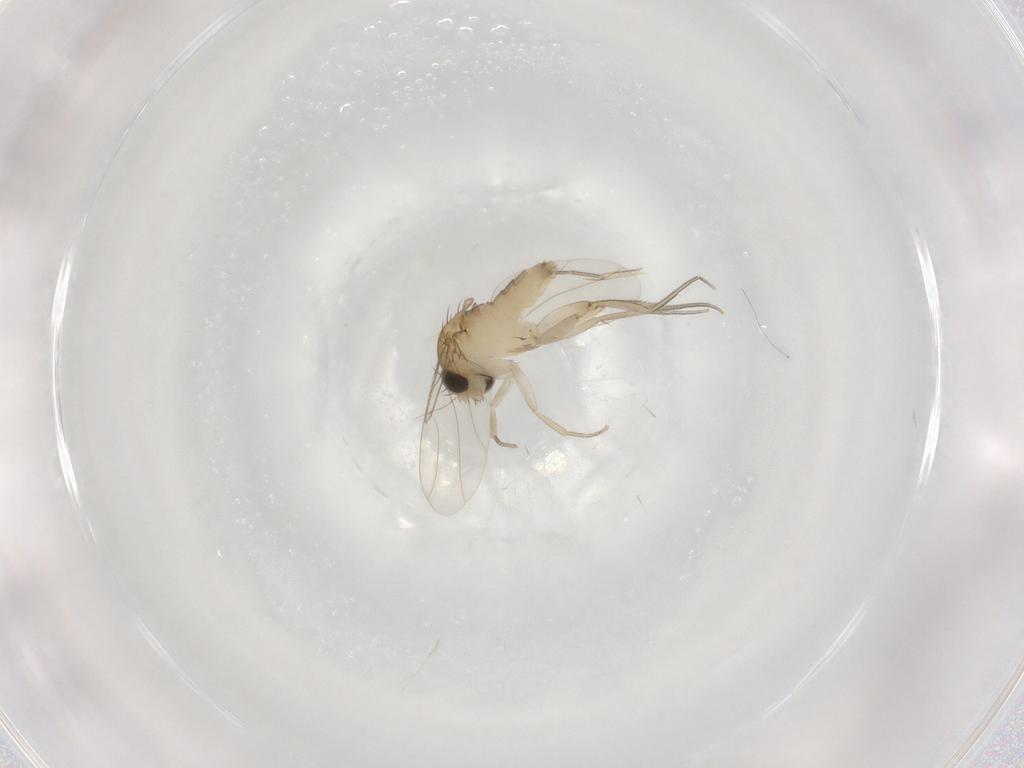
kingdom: Animalia
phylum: Arthropoda
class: Insecta
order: Diptera
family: Phoridae
